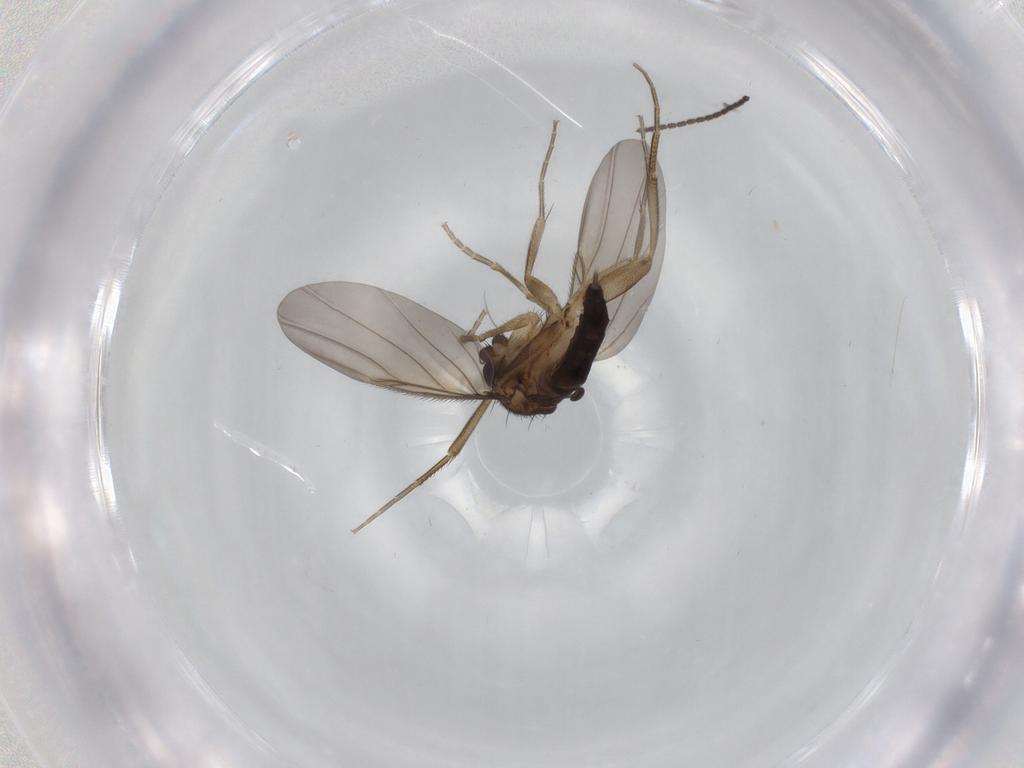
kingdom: Animalia
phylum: Arthropoda
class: Insecta
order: Diptera
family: Phoridae
